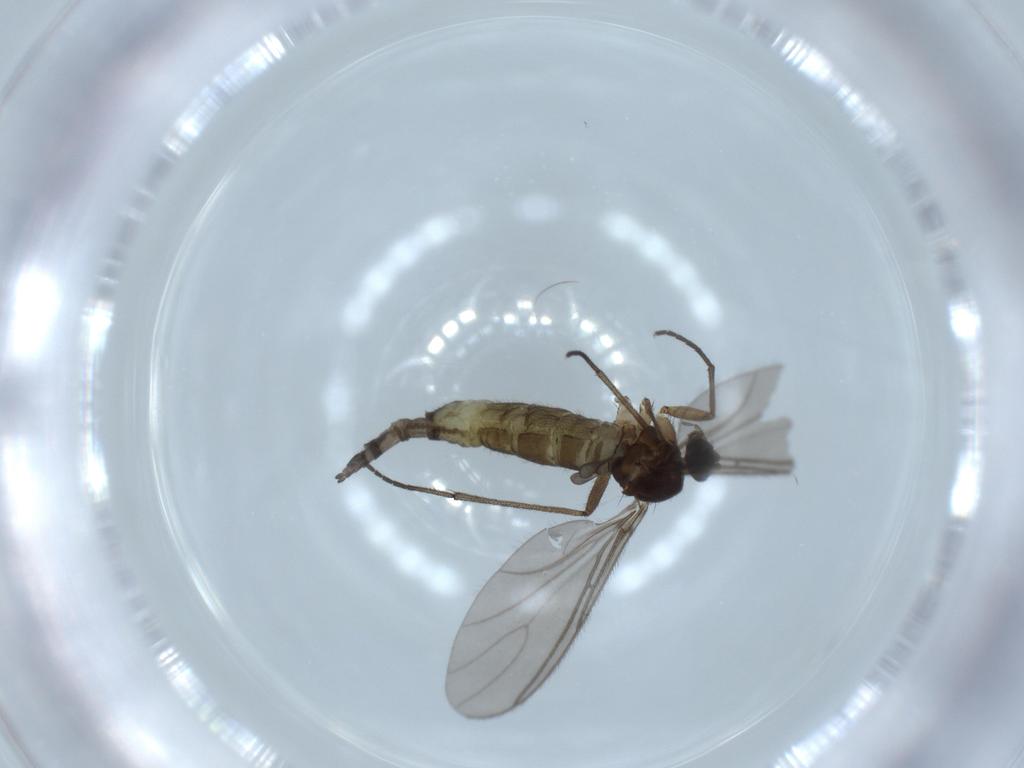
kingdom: Animalia
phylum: Arthropoda
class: Insecta
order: Diptera
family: Sciaridae
